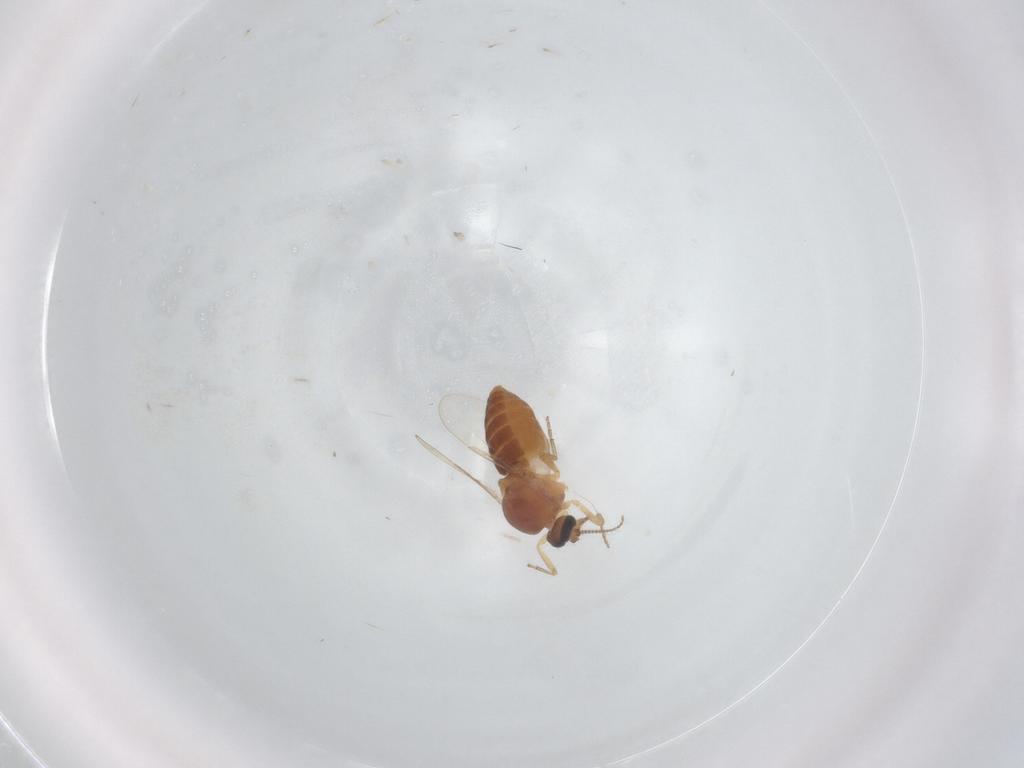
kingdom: Animalia
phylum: Arthropoda
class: Insecta
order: Diptera
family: Ceratopogonidae
